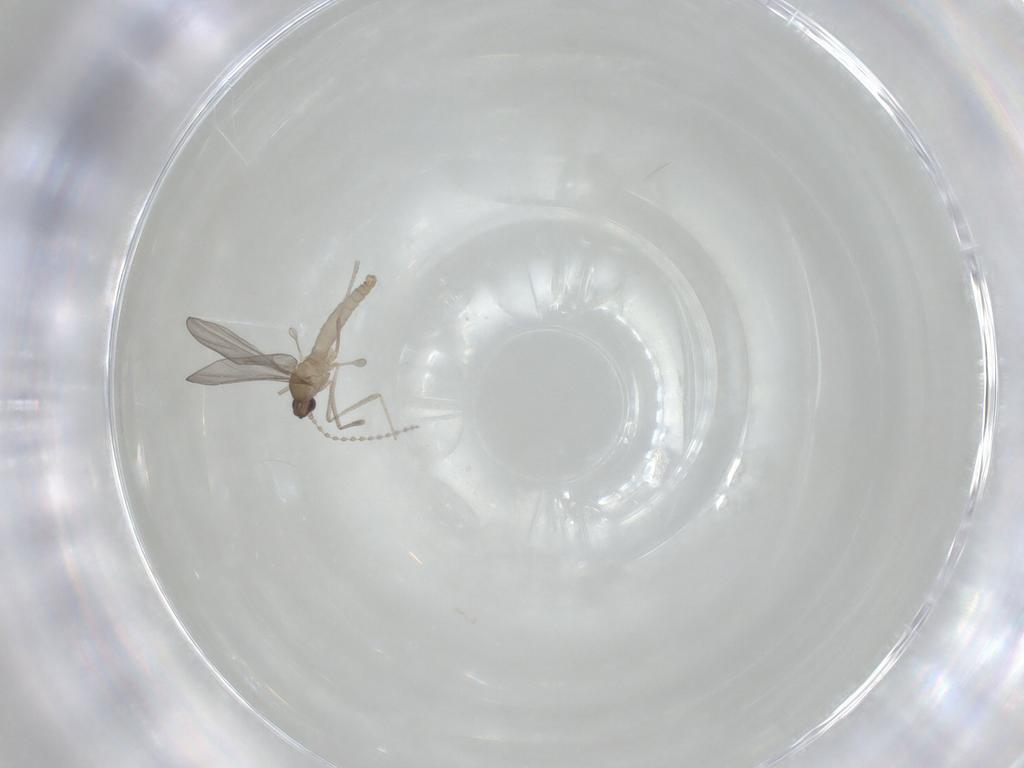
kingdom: Animalia
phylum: Arthropoda
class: Insecta
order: Diptera
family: Cecidomyiidae
